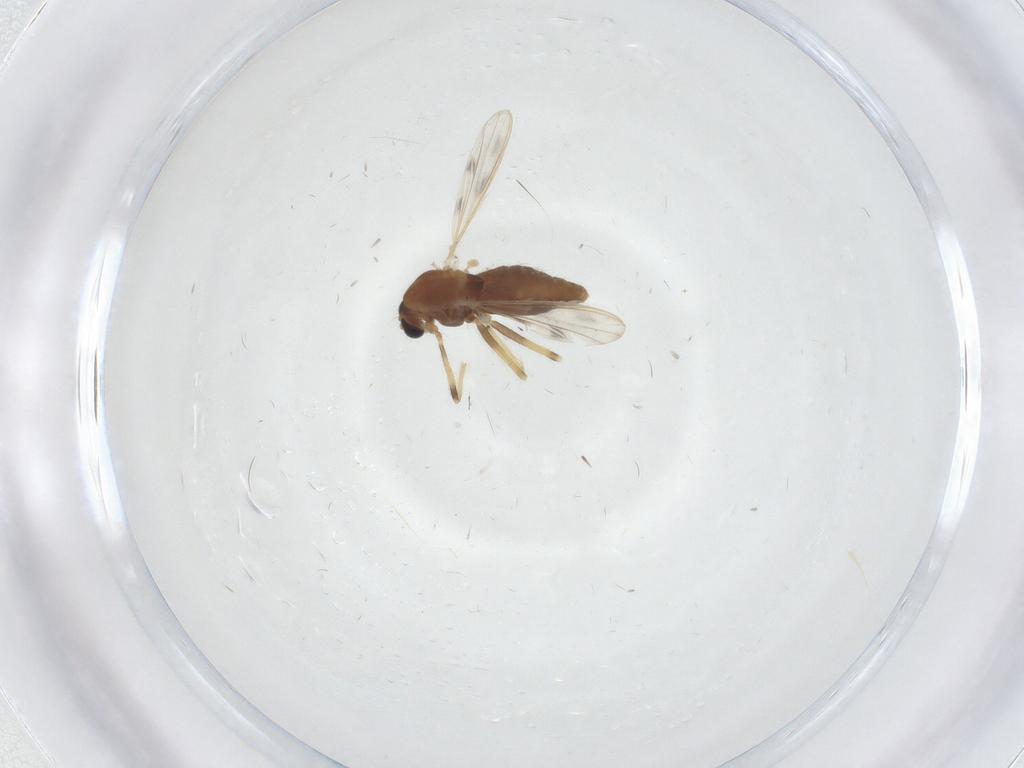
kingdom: Animalia
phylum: Arthropoda
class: Insecta
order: Diptera
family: Chironomidae
